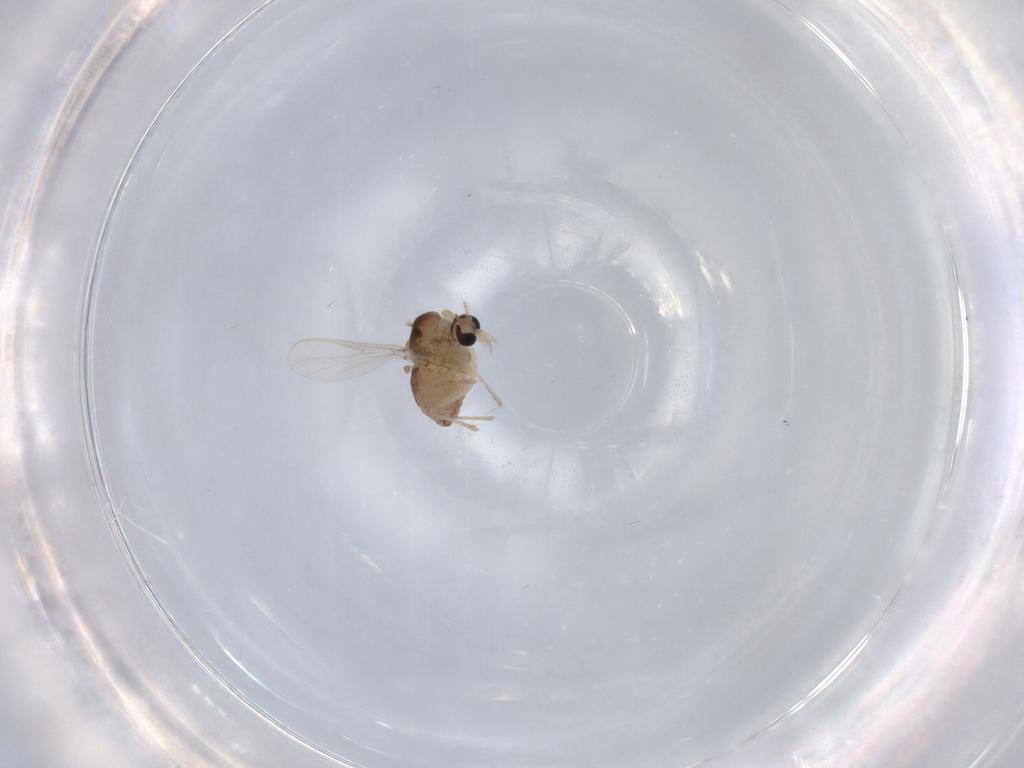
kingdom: Animalia
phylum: Arthropoda
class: Insecta
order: Diptera
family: Chironomidae
